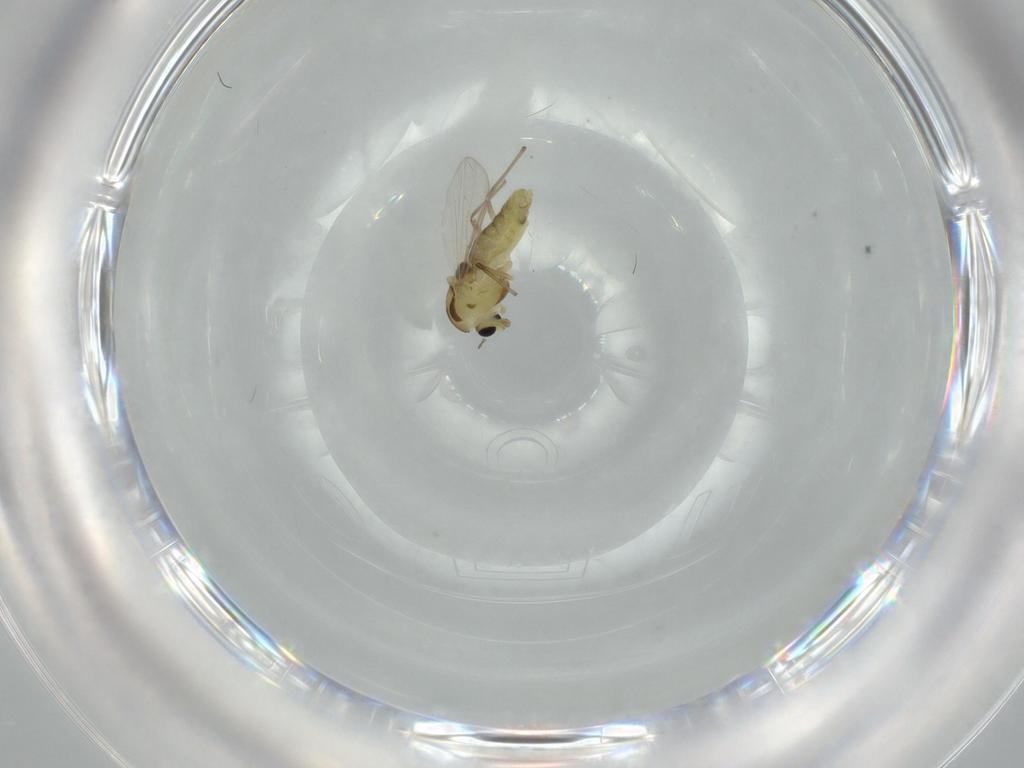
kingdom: Animalia
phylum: Arthropoda
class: Insecta
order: Diptera
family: Chironomidae
